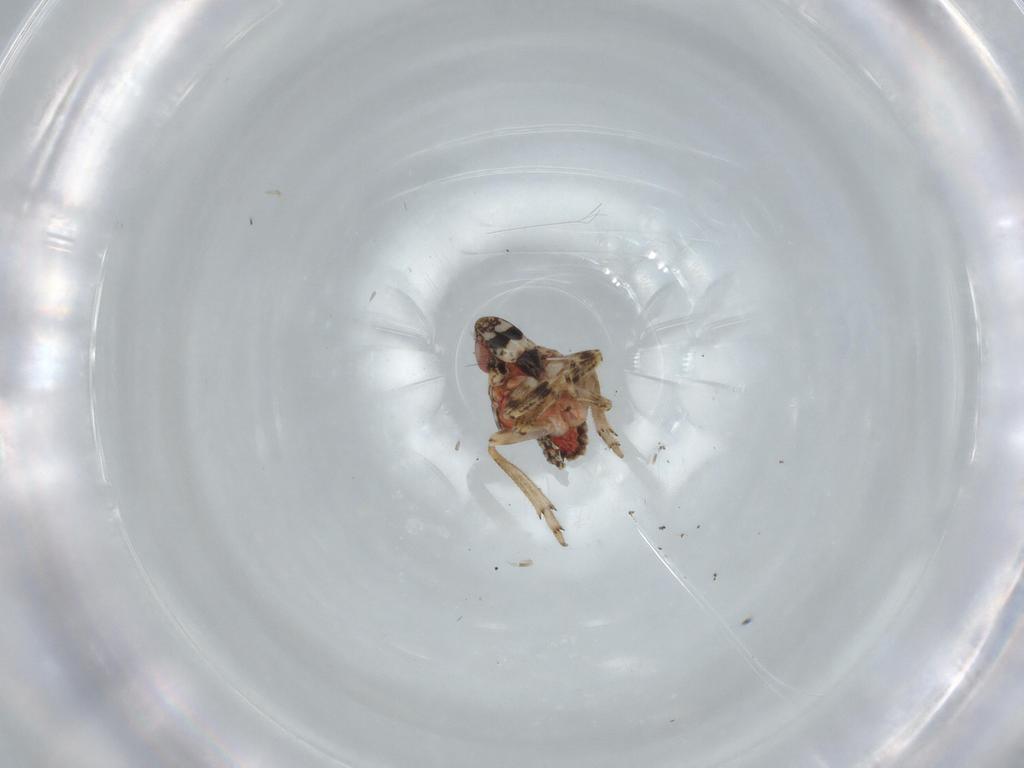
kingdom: Animalia
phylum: Arthropoda
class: Insecta
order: Hemiptera
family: Issidae
